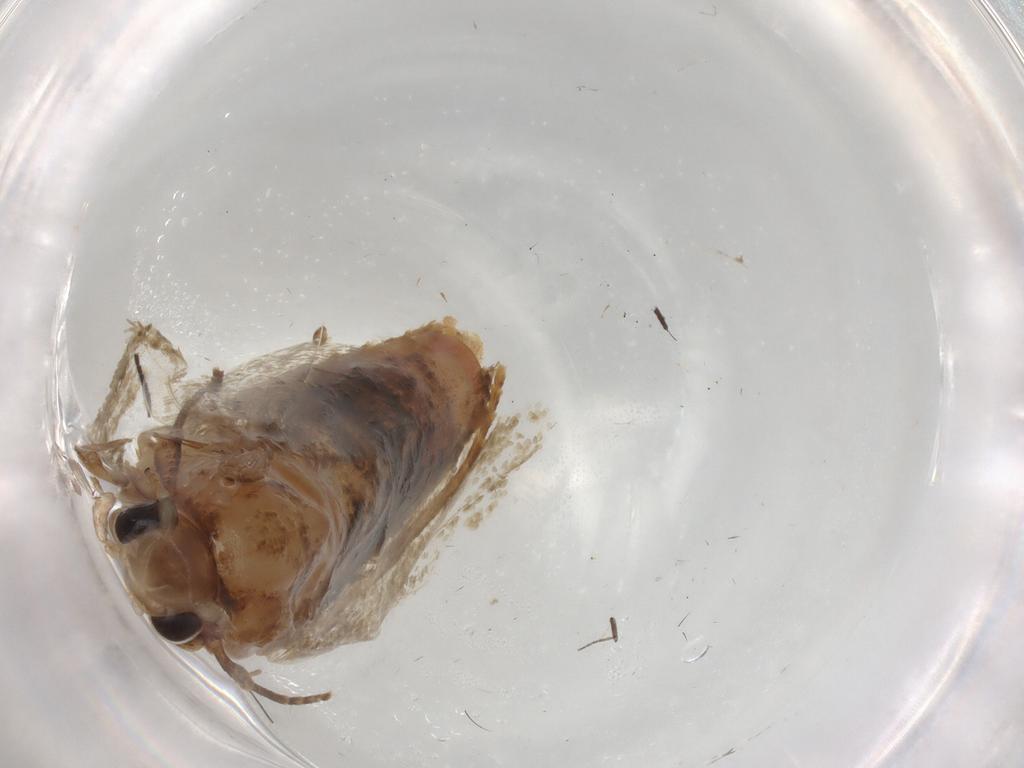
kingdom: Animalia
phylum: Arthropoda
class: Insecta
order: Lepidoptera
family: Geometridae
